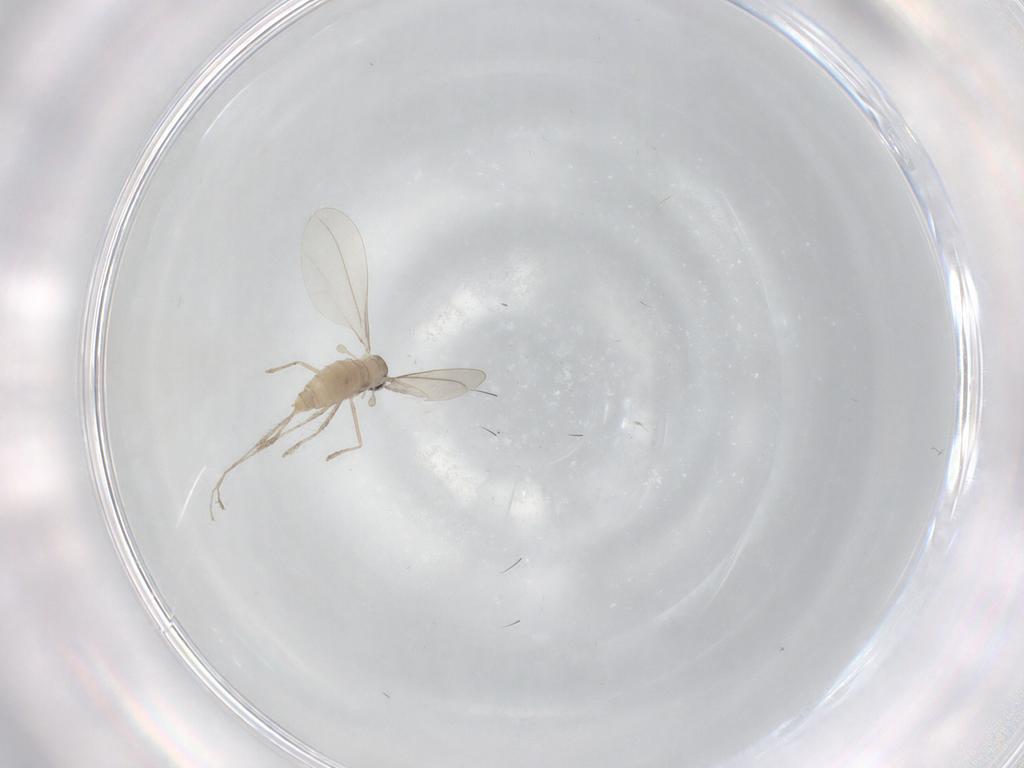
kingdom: Animalia
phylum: Arthropoda
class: Insecta
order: Diptera
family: Cecidomyiidae
